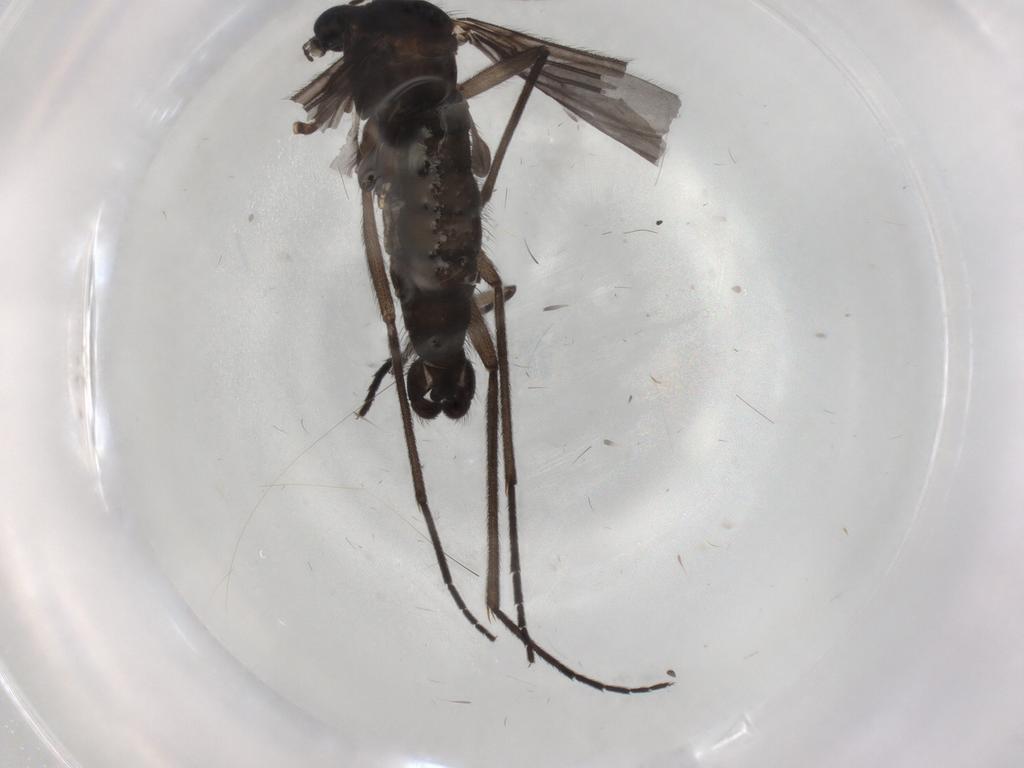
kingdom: Animalia
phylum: Arthropoda
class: Insecta
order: Diptera
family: Sciaridae
